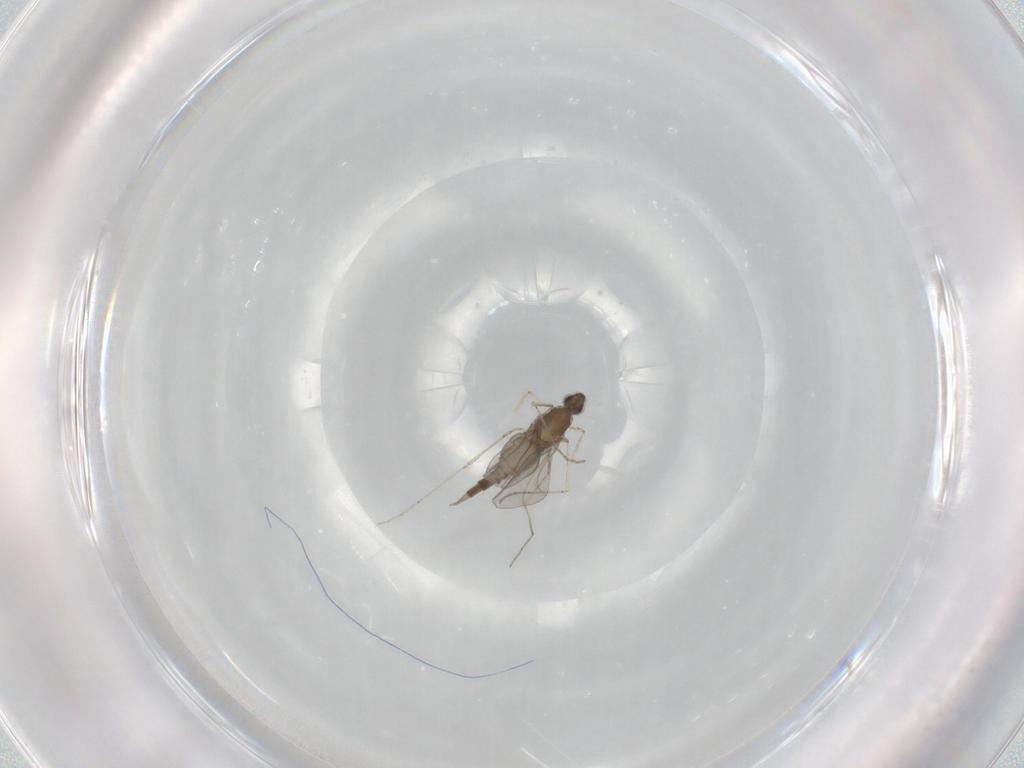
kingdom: Animalia
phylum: Arthropoda
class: Insecta
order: Diptera
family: Cecidomyiidae
